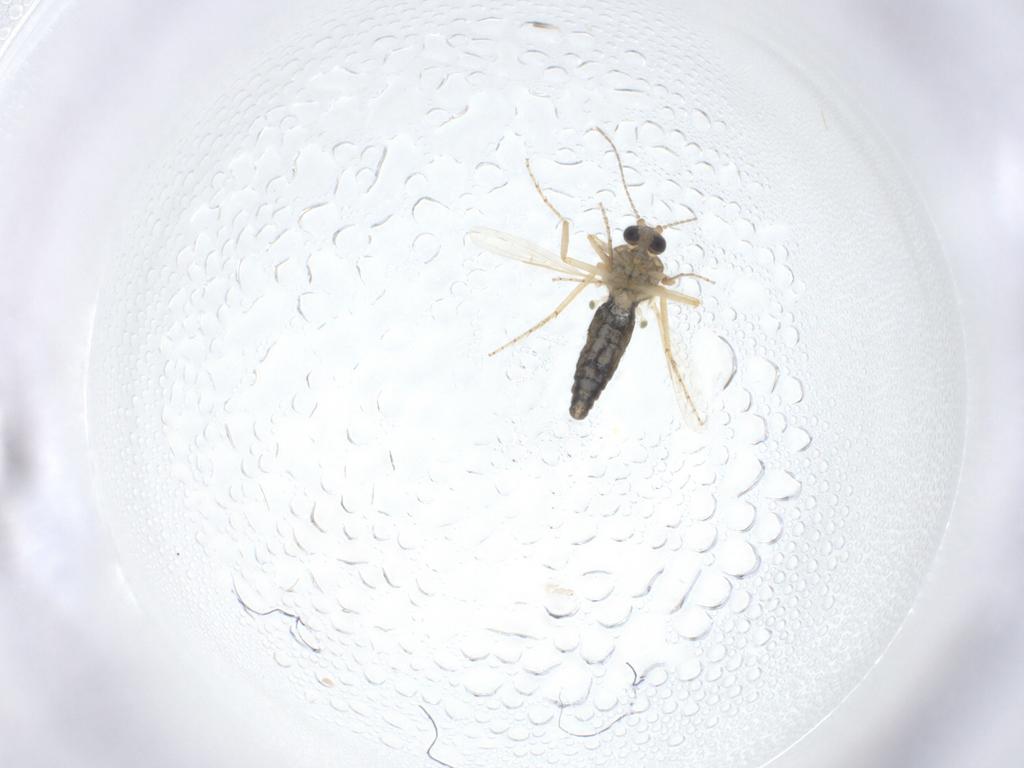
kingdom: Animalia
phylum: Arthropoda
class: Insecta
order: Diptera
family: Ceratopogonidae
